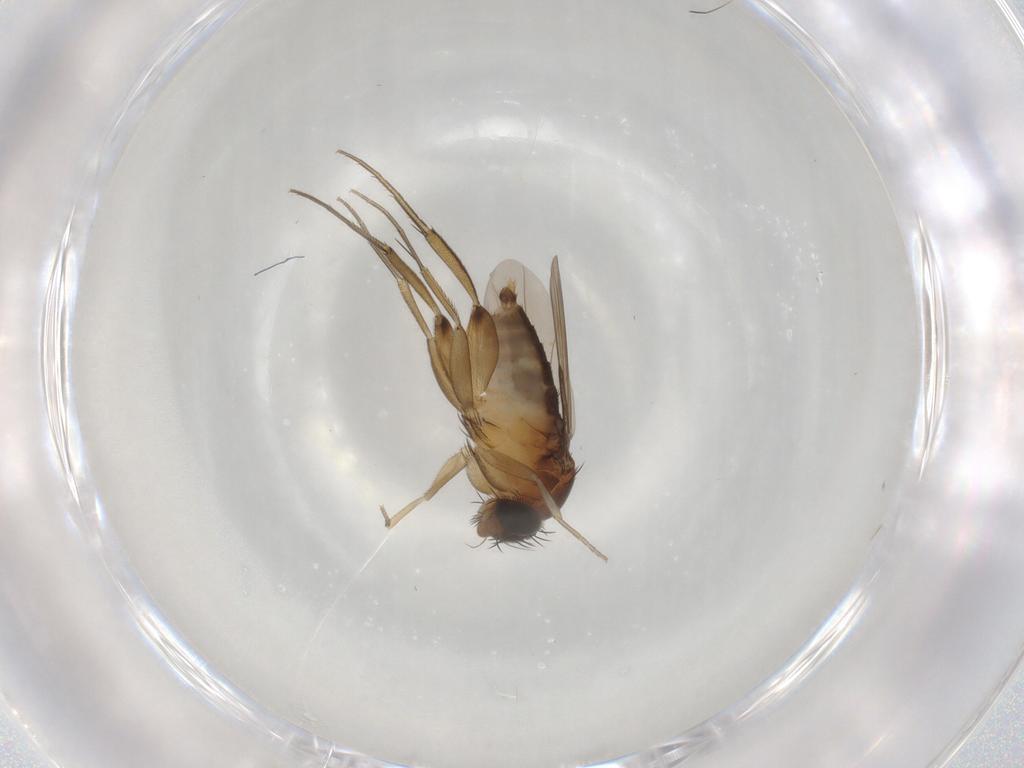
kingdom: Animalia
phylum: Arthropoda
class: Insecta
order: Diptera
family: Phoridae
